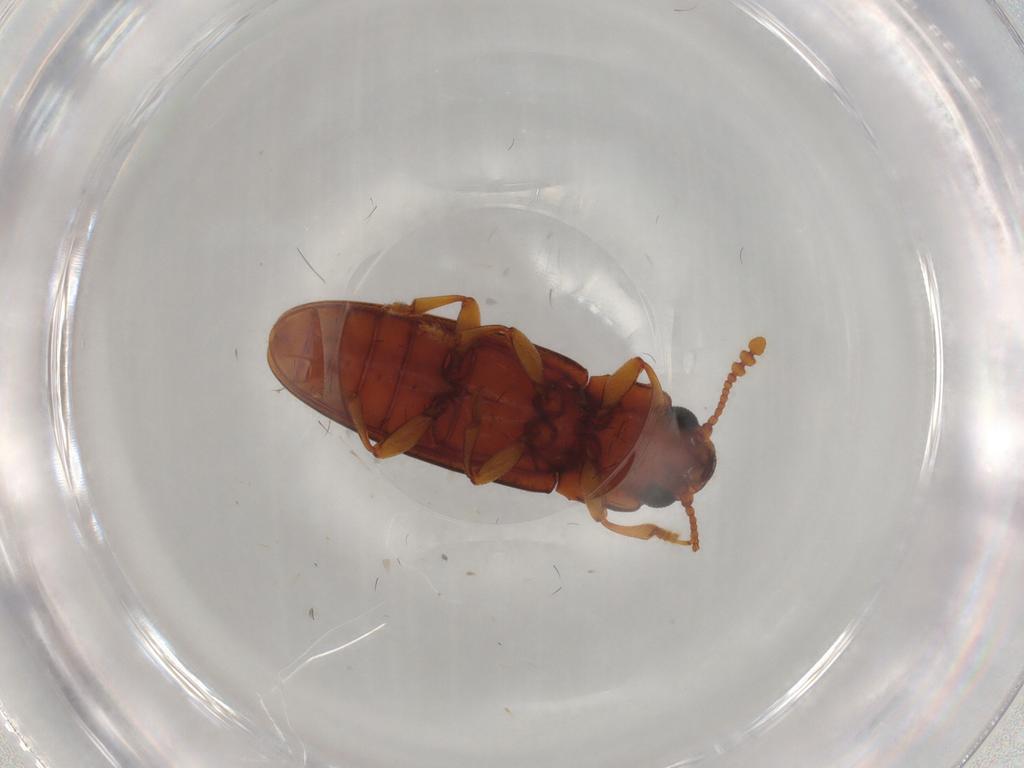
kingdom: Animalia
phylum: Arthropoda
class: Insecta
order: Coleoptera
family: Erotylidae
